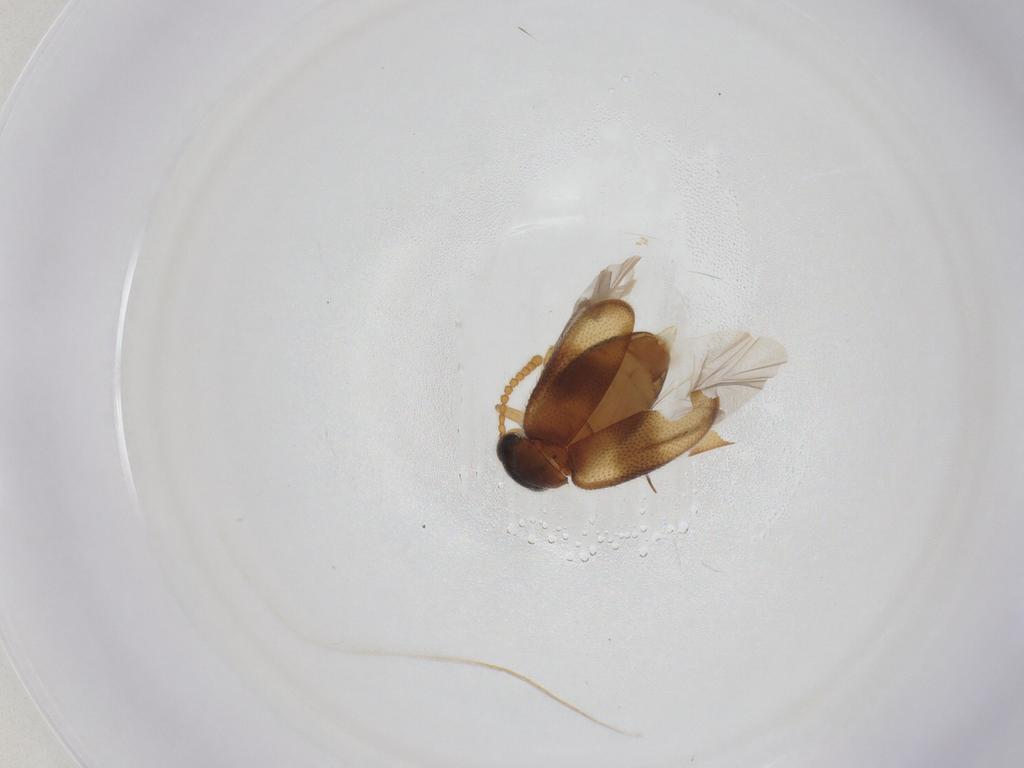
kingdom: Animalia
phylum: Arthropoda
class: Insecta
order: Coleoptera
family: Aderidae
